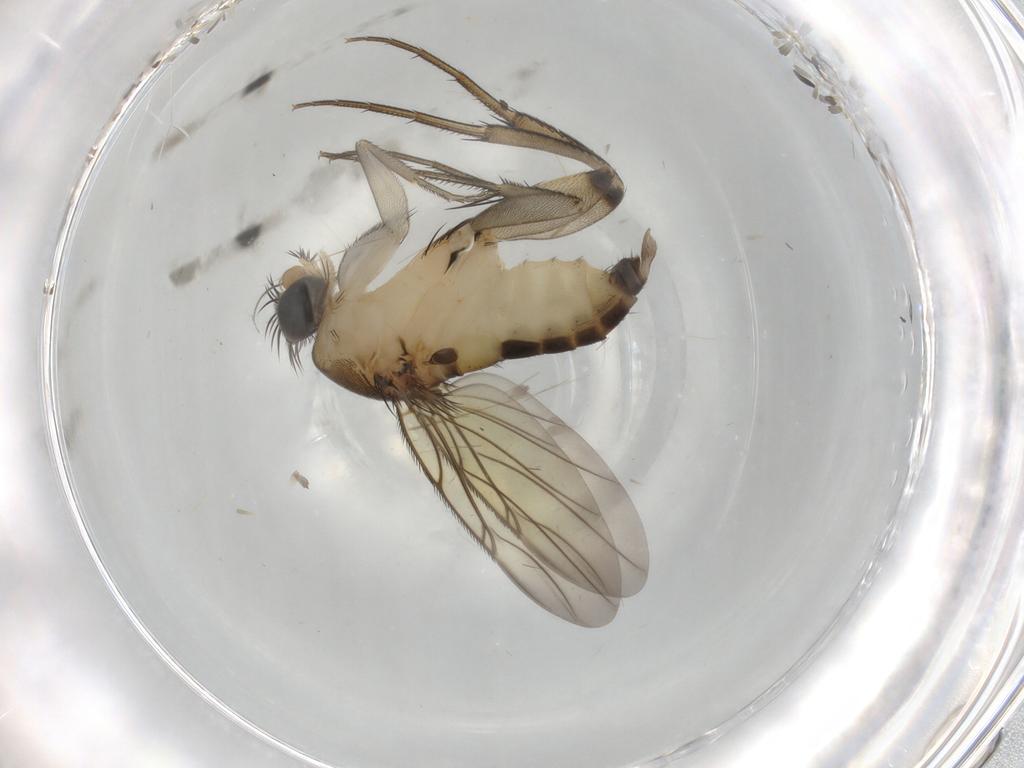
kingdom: Animalia
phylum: Arthropoda
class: Insecta
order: Diptera
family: Phoridae
